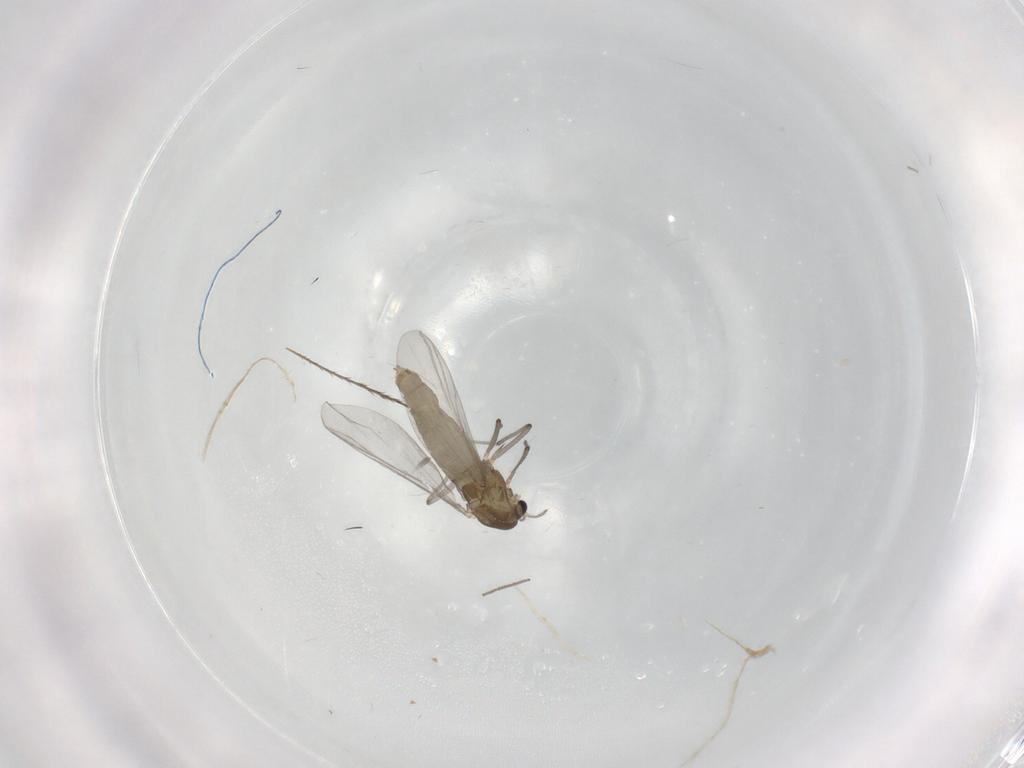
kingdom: Animalia
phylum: Arthropoda
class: Insecta
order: Diptera
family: Chironomidae
